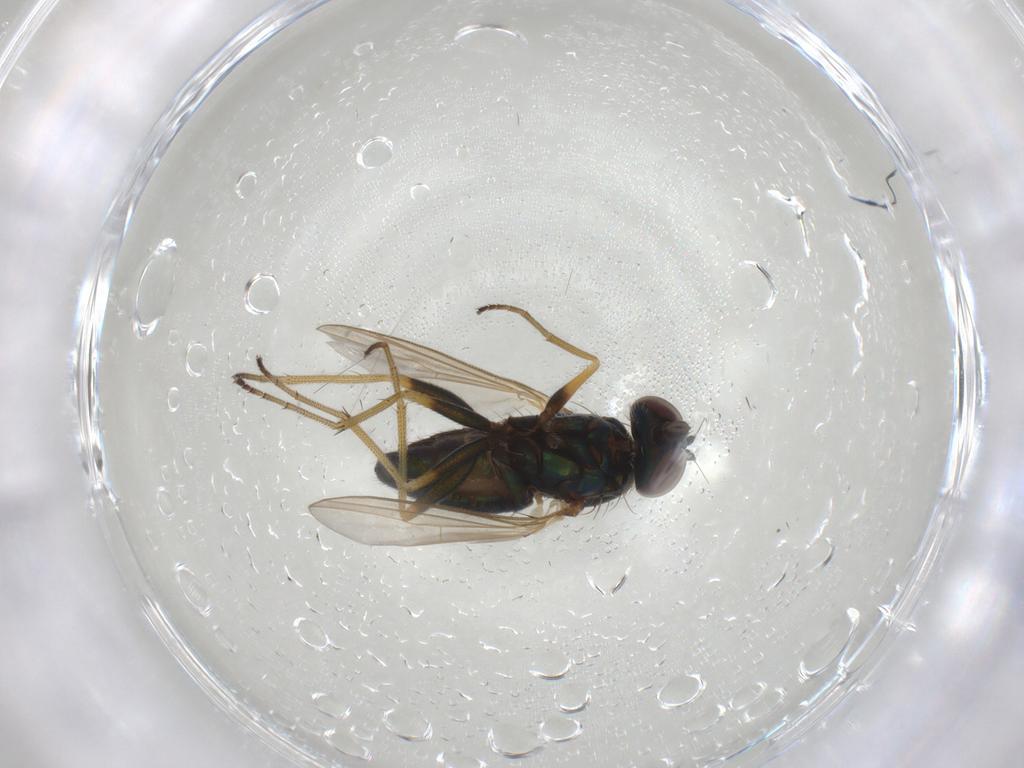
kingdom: Animalia
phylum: Arthropoda
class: Insecta
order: Diptera
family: Dolichopodidae
